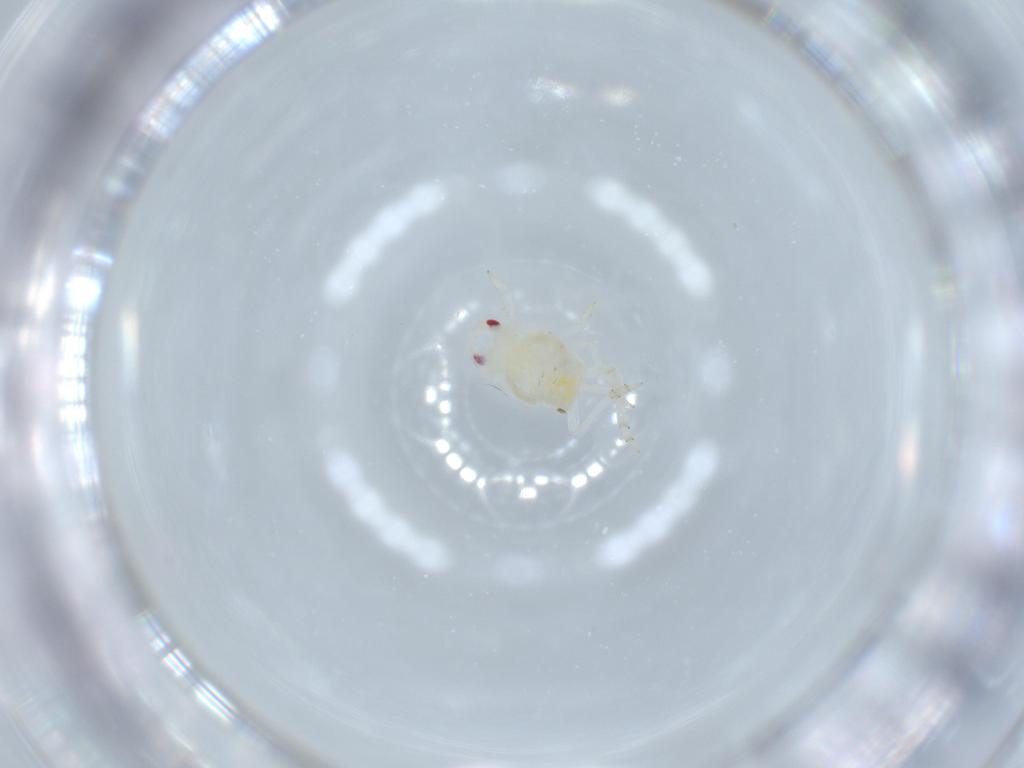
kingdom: Animalia
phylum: Arthropoda
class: Insecta
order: Hemiptera
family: Flatidae
